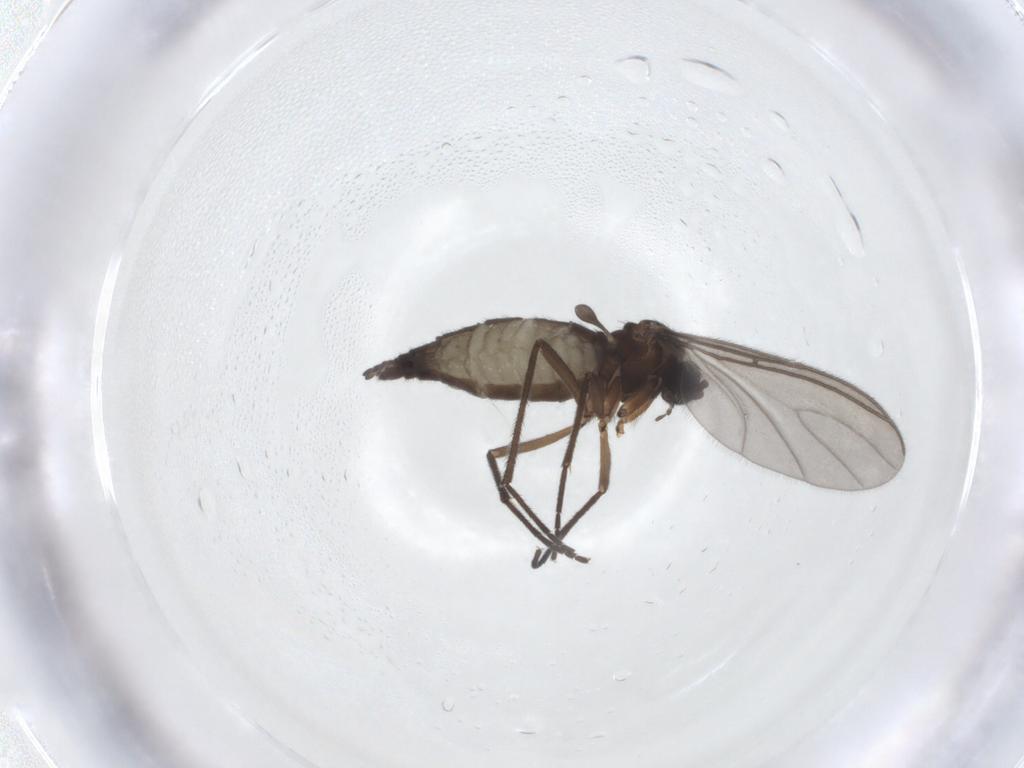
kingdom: Animalia
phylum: Arthropoda
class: Insecta
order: Diptera
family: Sciaridae
